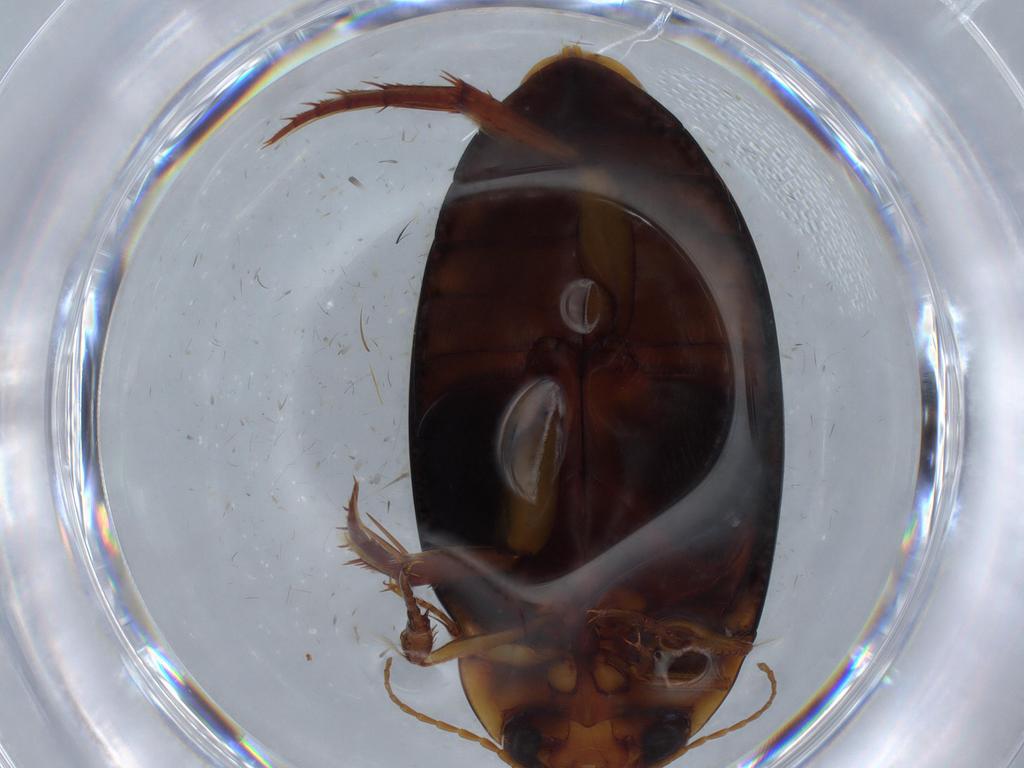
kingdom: Animalia
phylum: Arthropoda
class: Insecta
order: Coleoptera
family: Dytiscidae
